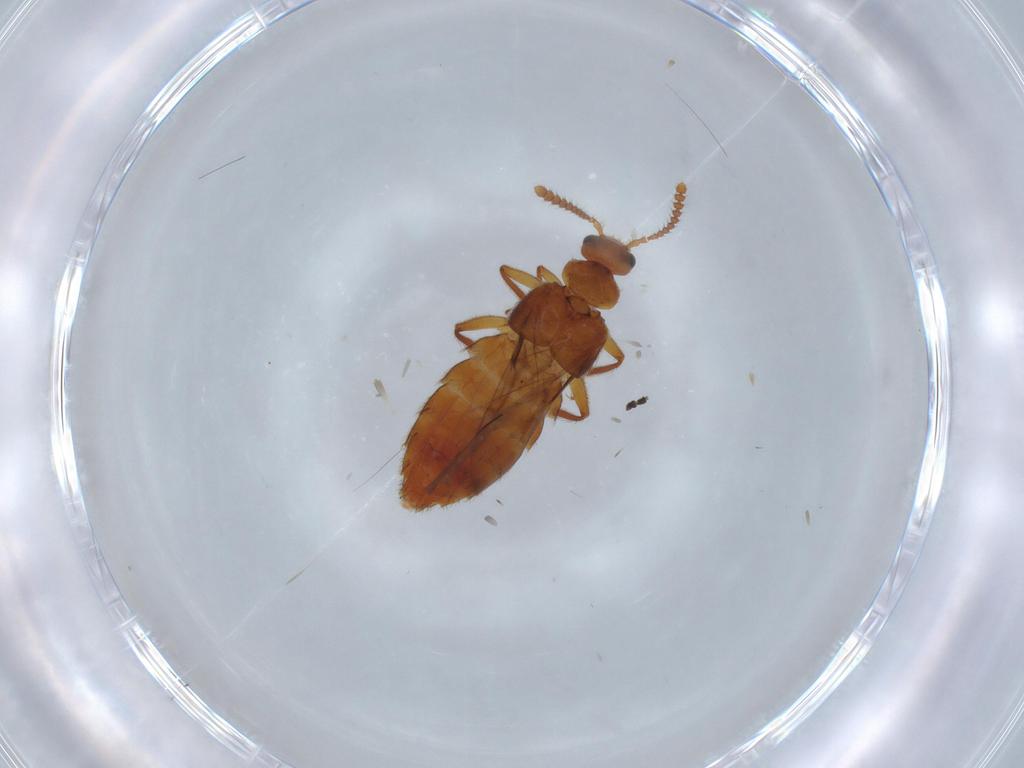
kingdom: Animalia
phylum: Arthropoda
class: Insecta
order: Coleoptera
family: Staphylinidae
